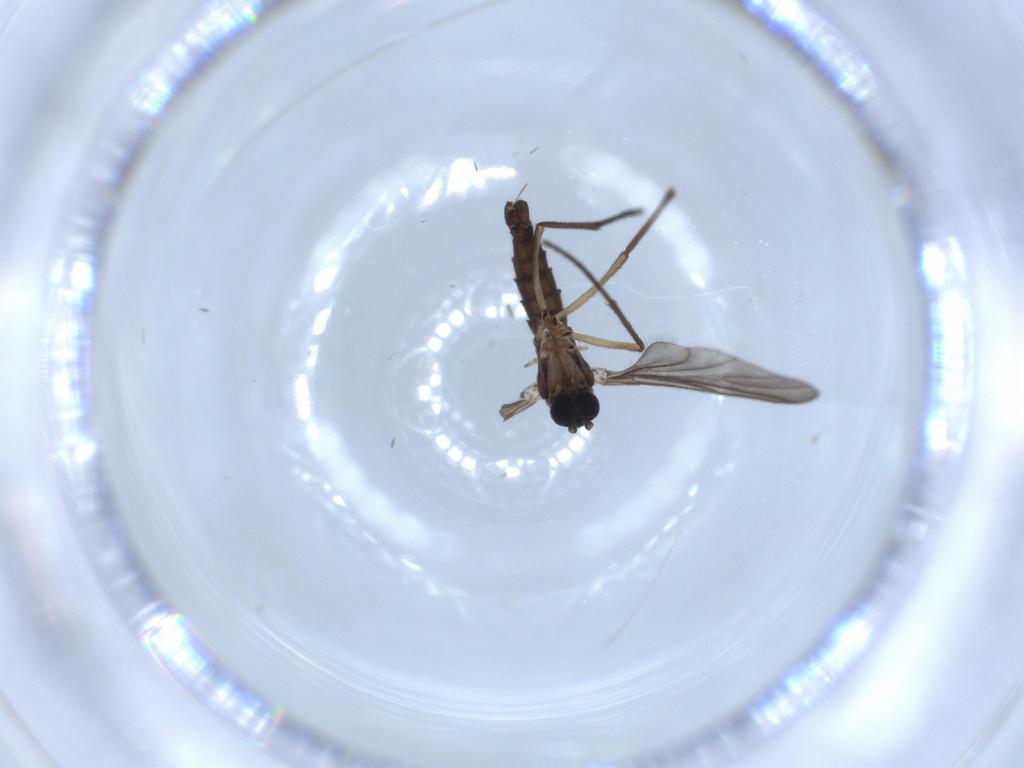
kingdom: Animalia
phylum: Arthropoda
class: Insecta
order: Diptera
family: Sciaridae
